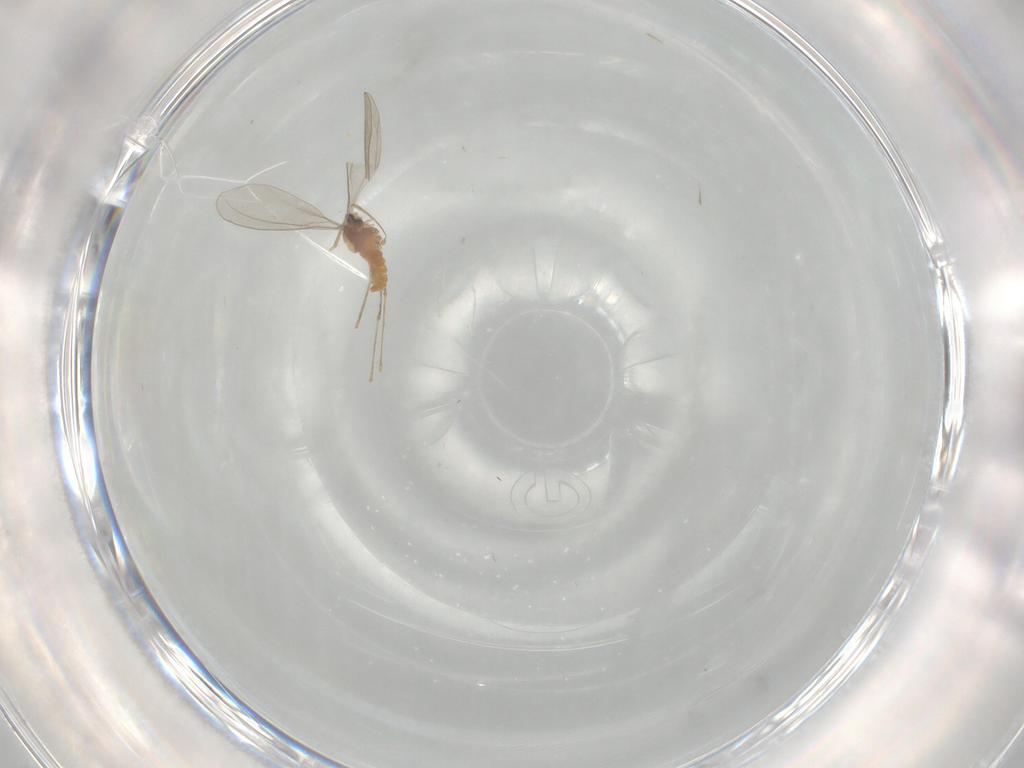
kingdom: Animalia
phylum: Arthropoda
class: Insecta
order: Diptera
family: Cecidomyiidae
